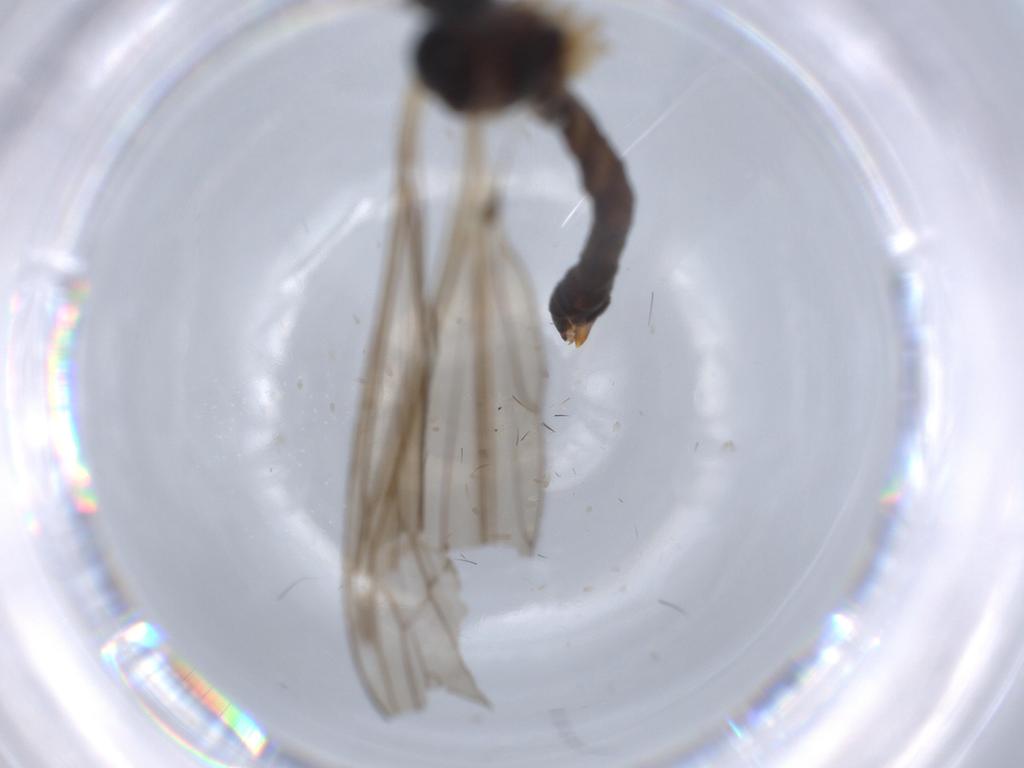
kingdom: Animalia
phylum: Arthropoda
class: Insecta
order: Diptera
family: Limoniidae
